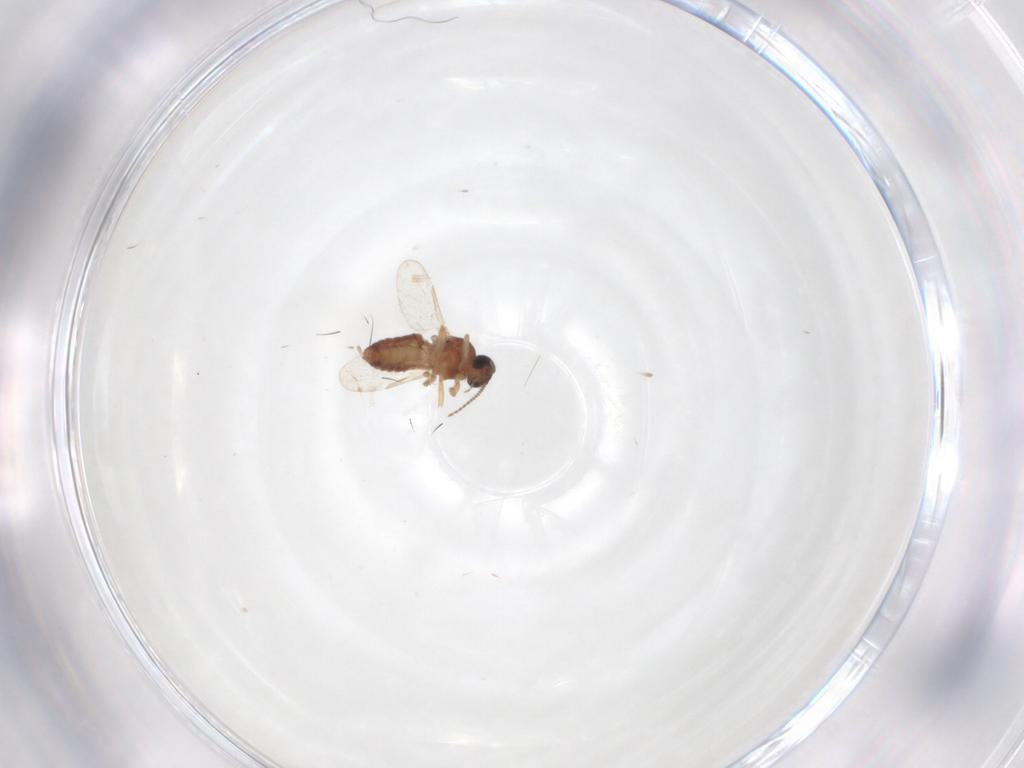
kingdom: Animalia
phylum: Arthropoda
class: Insecta
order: Diptera
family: Ceratopogonidae
